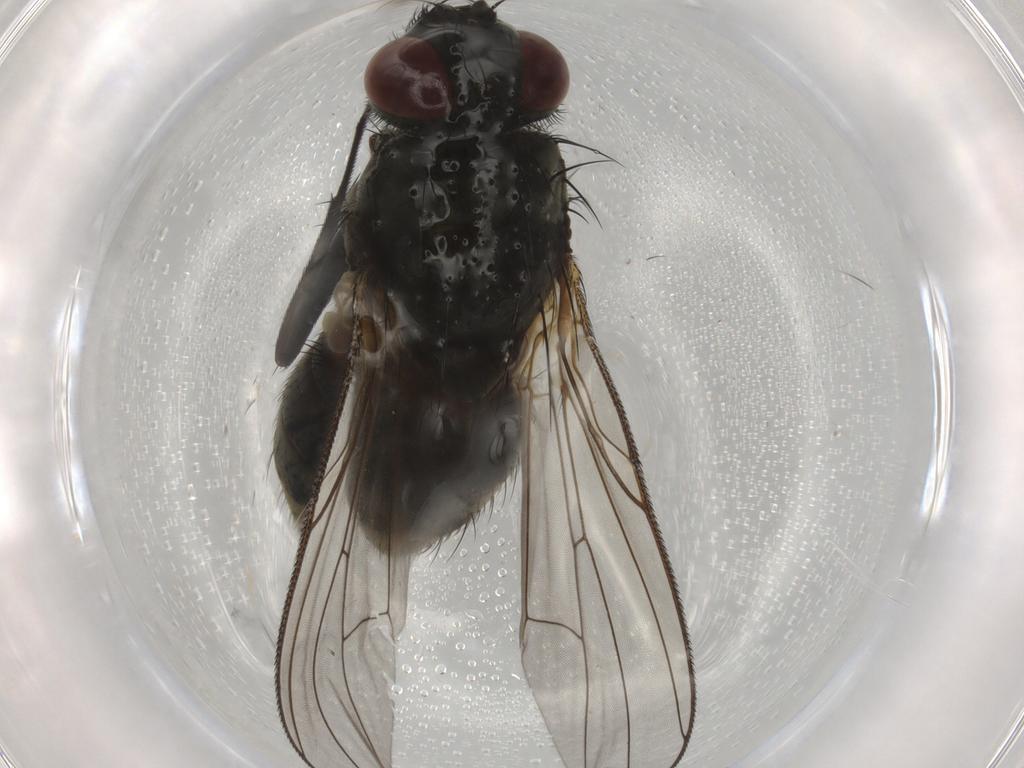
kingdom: Animalia
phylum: Arthropoda
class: Insecta
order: Diptera
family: Muscidae
